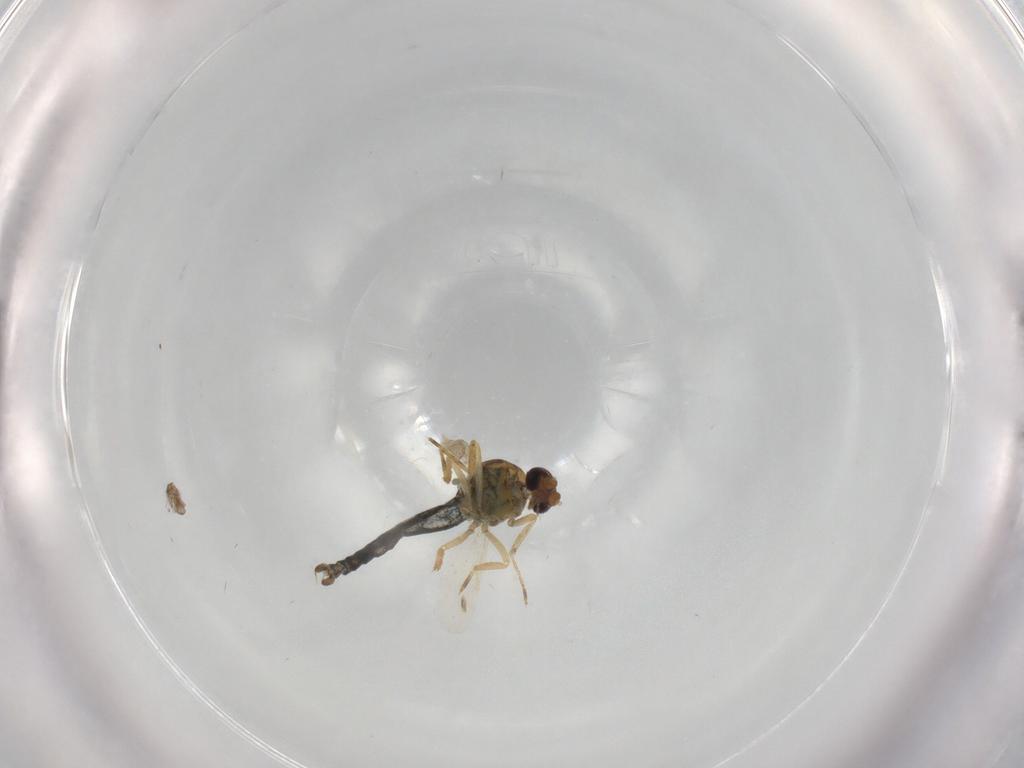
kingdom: Animalia
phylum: Arthropoda
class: Insecta
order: Diptera
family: Ceratopogonidae
